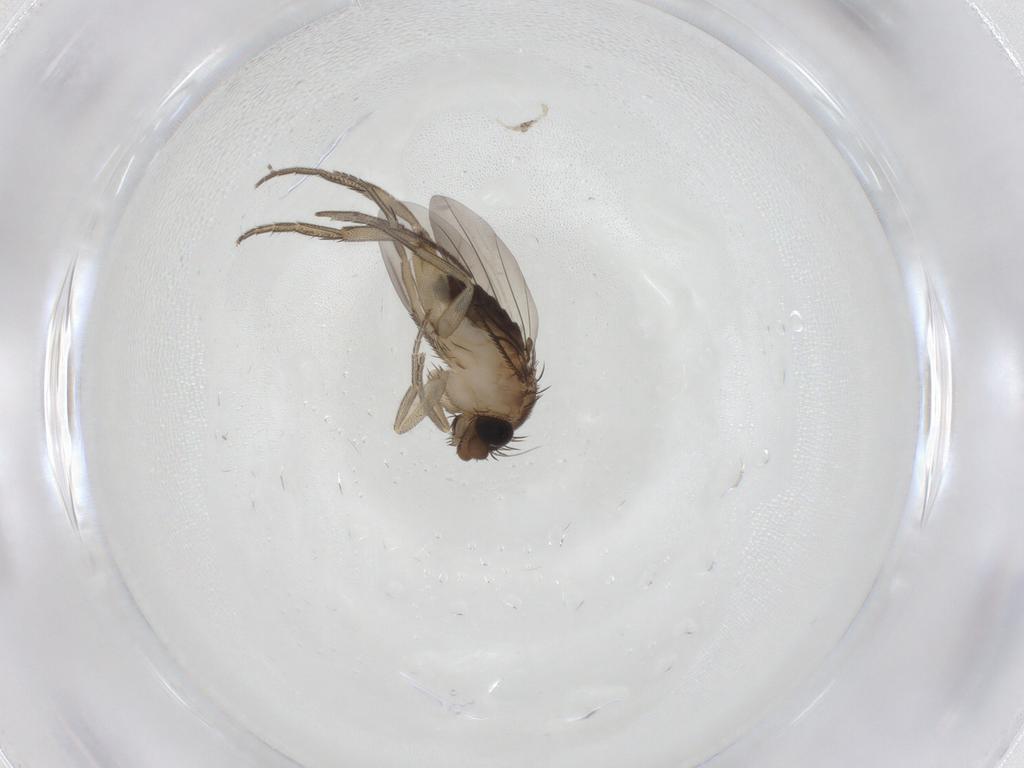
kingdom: Animalia
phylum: Arthropoda
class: Insecta
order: Diptera
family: Phoridae
